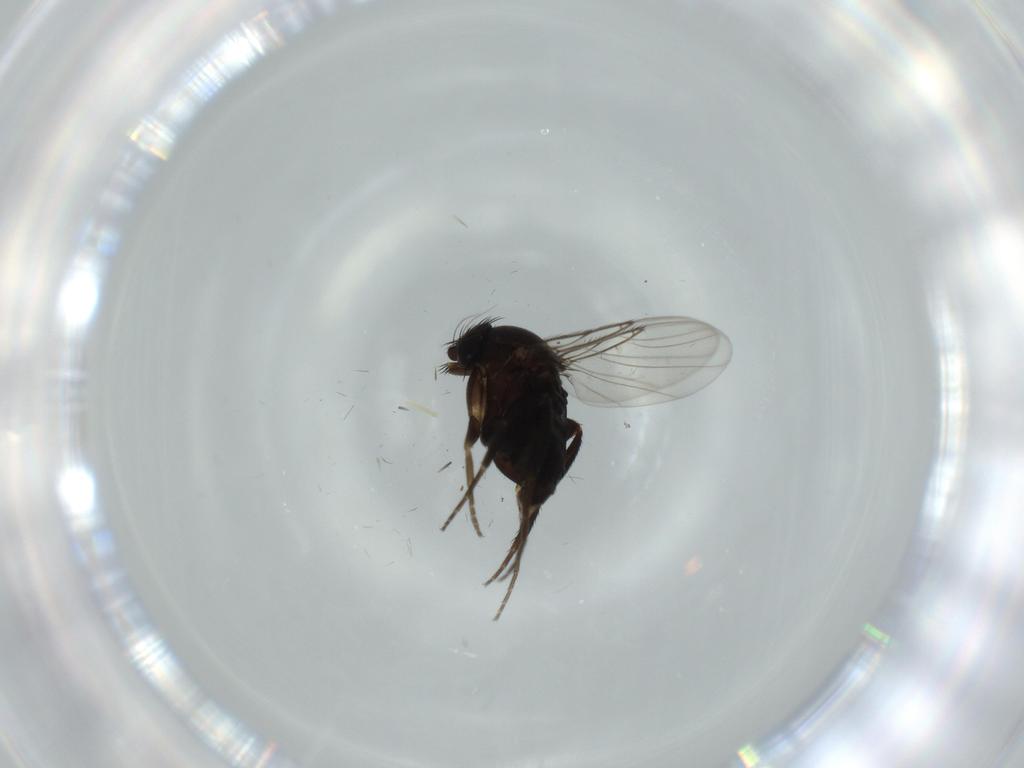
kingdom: Animalia
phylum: Arthropoda
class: Insecta
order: Diptera
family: Phoridae
